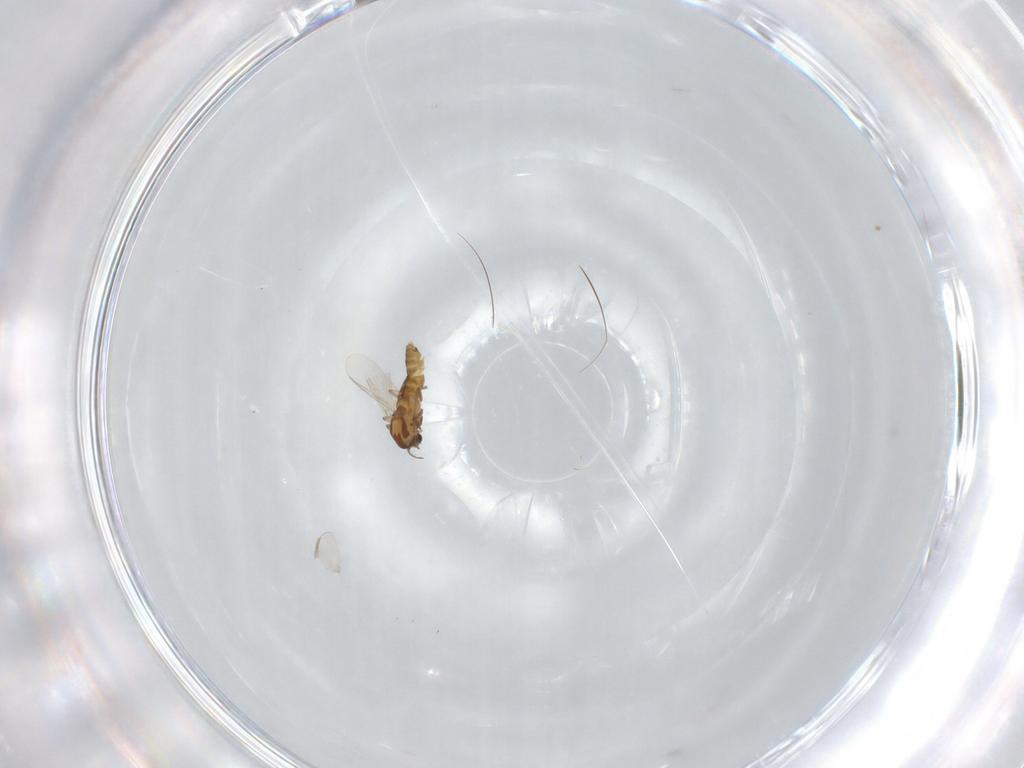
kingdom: Animalia
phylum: Arthropoda
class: Insecta
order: Diptera
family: Chironomidae
